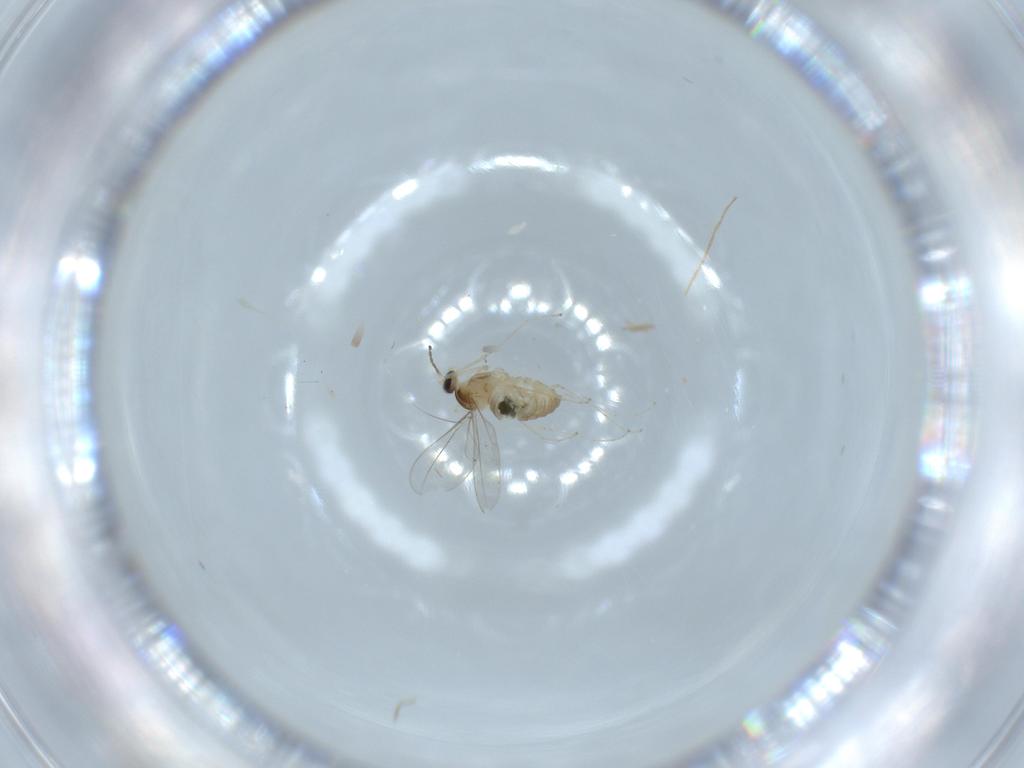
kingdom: Animalia
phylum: Arthropoda
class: Insecta
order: Diptera
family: Cecidomyiidae
